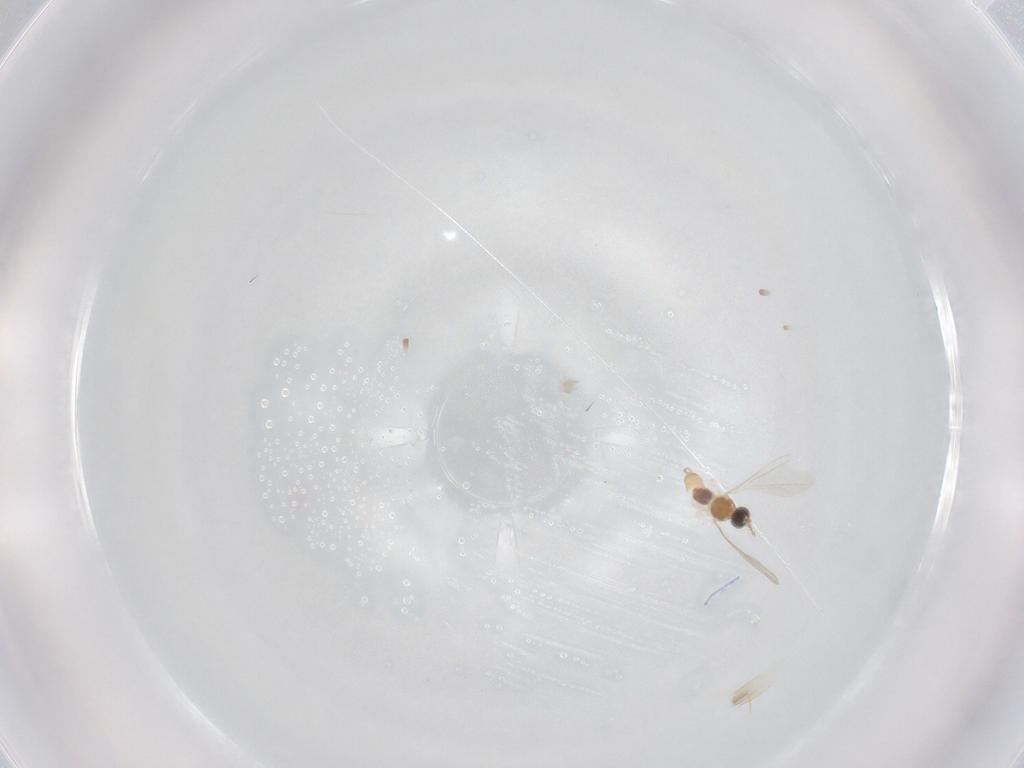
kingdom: Animalia
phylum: Arthropoda
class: Insecta
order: Diptera
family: Cecidomyiidae
